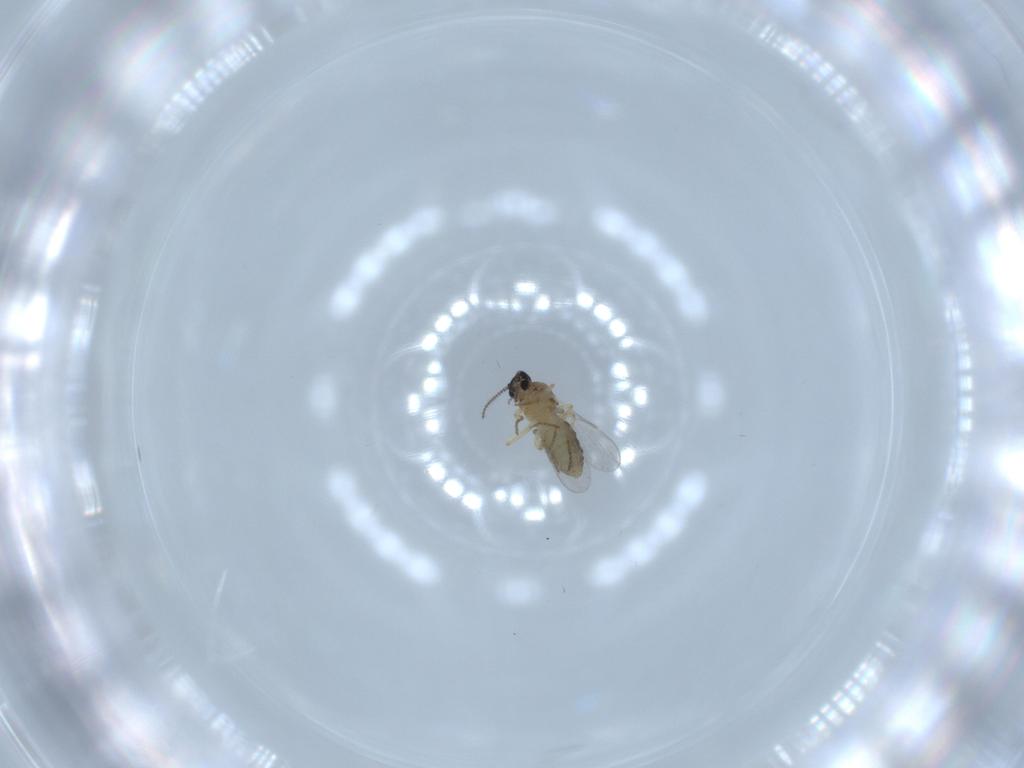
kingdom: Animalia
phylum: Arthropoda
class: Insecta
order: Diptera
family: Ceratopogonidae
